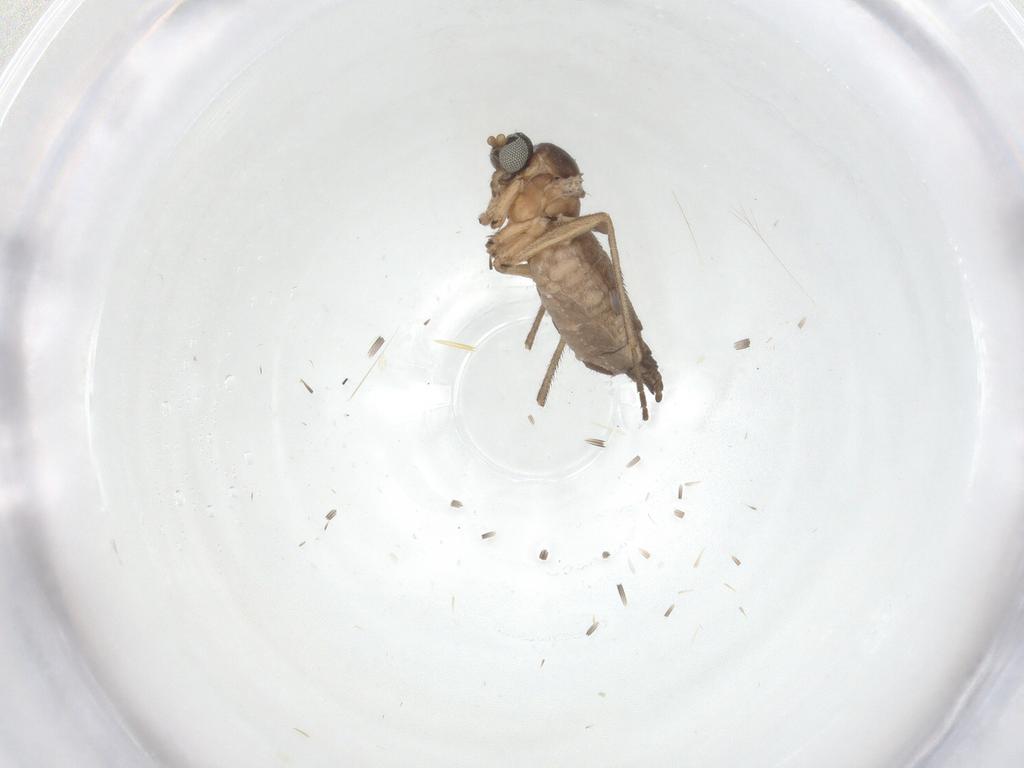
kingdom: Animalia
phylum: Arthropoda
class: Insecta
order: Diptera
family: Sciaridae
